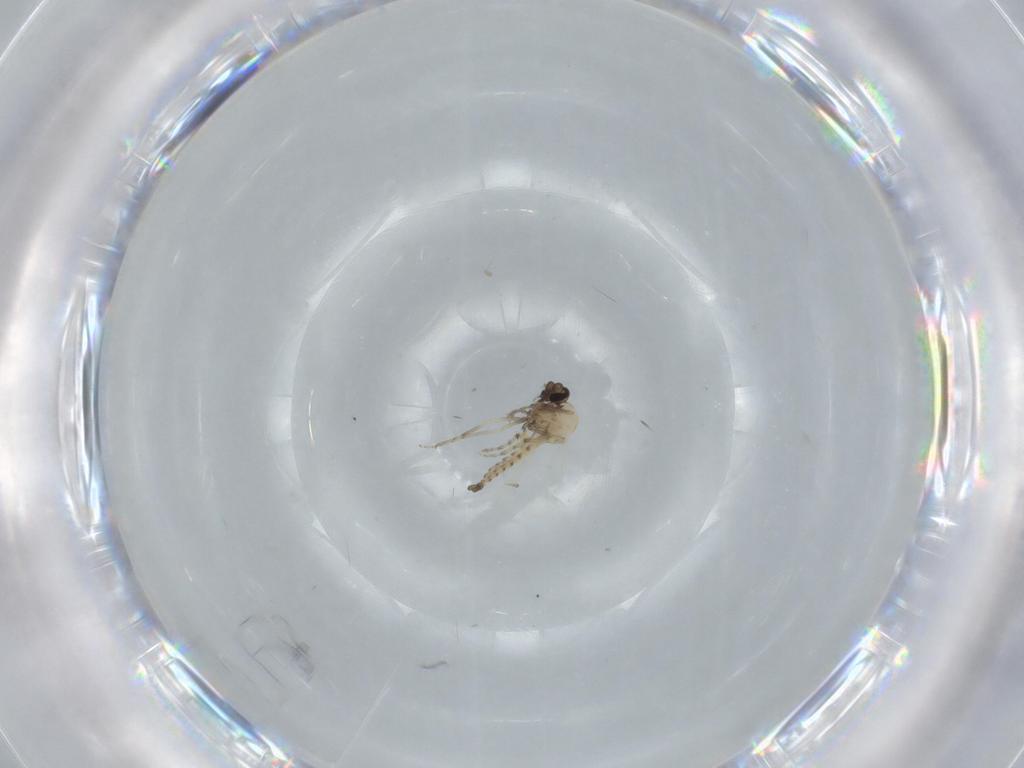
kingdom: Animalia
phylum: Arthropoda
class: Insecta
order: Diptera
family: Ceratopogonidae
